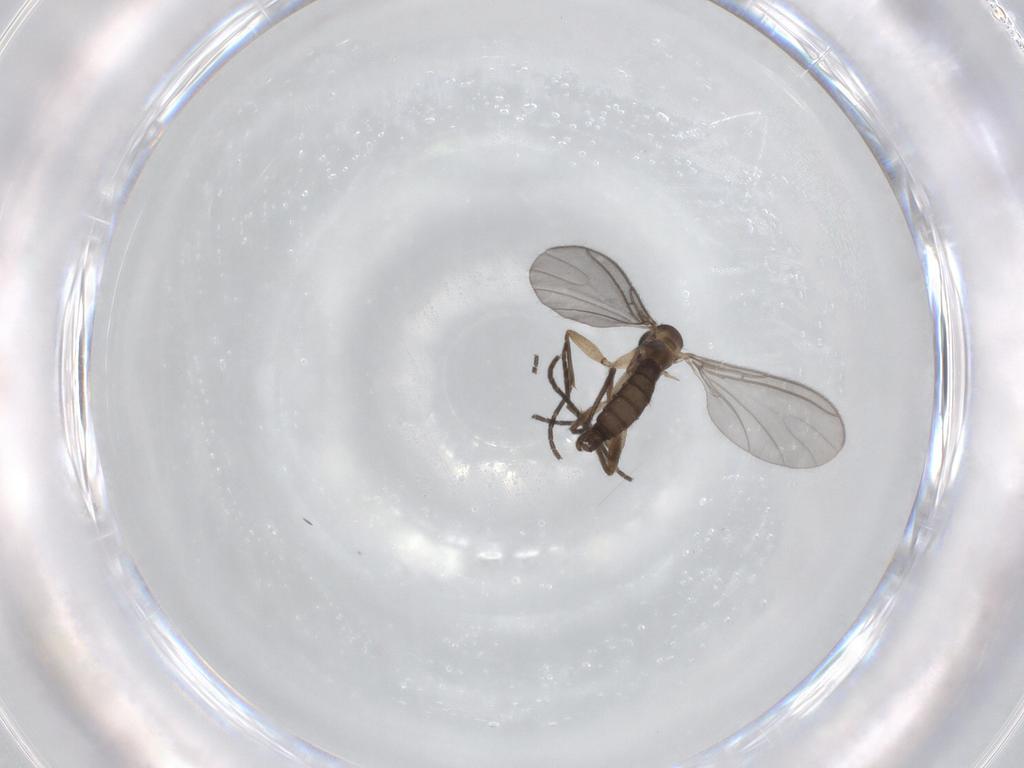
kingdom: Animalia
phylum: Arthropoda
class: Insecta
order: Diptera
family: Sciaridae
